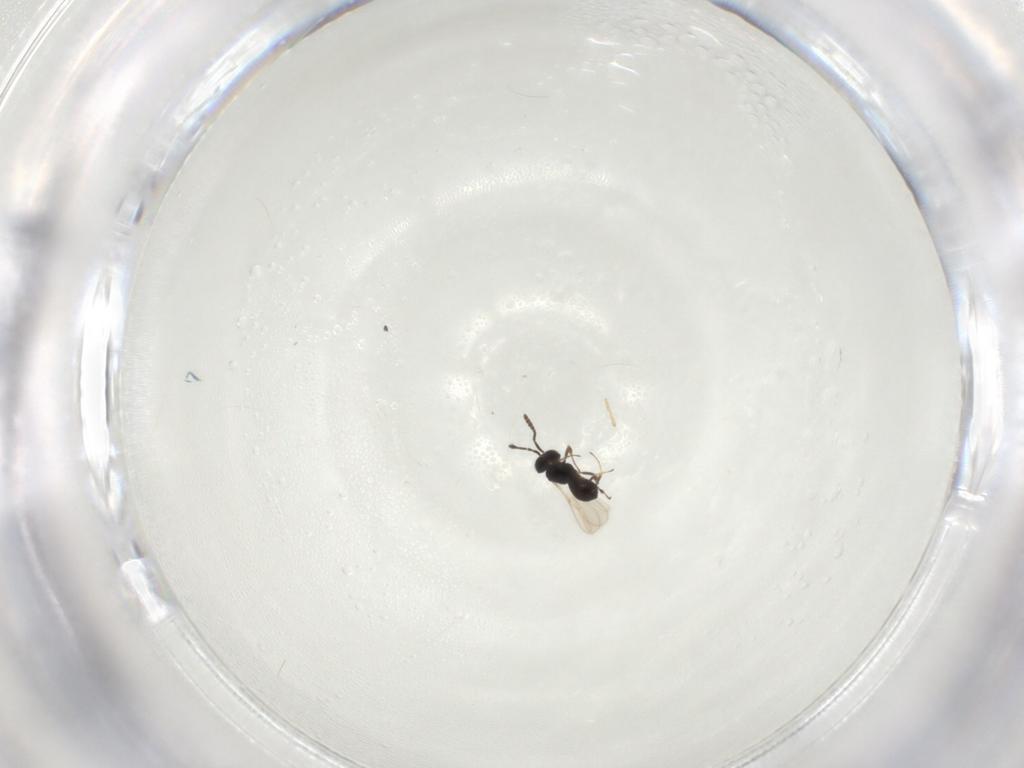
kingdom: Animalia
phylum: Arthropoda
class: Insecta
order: Hymenoptera
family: Scelionidae
